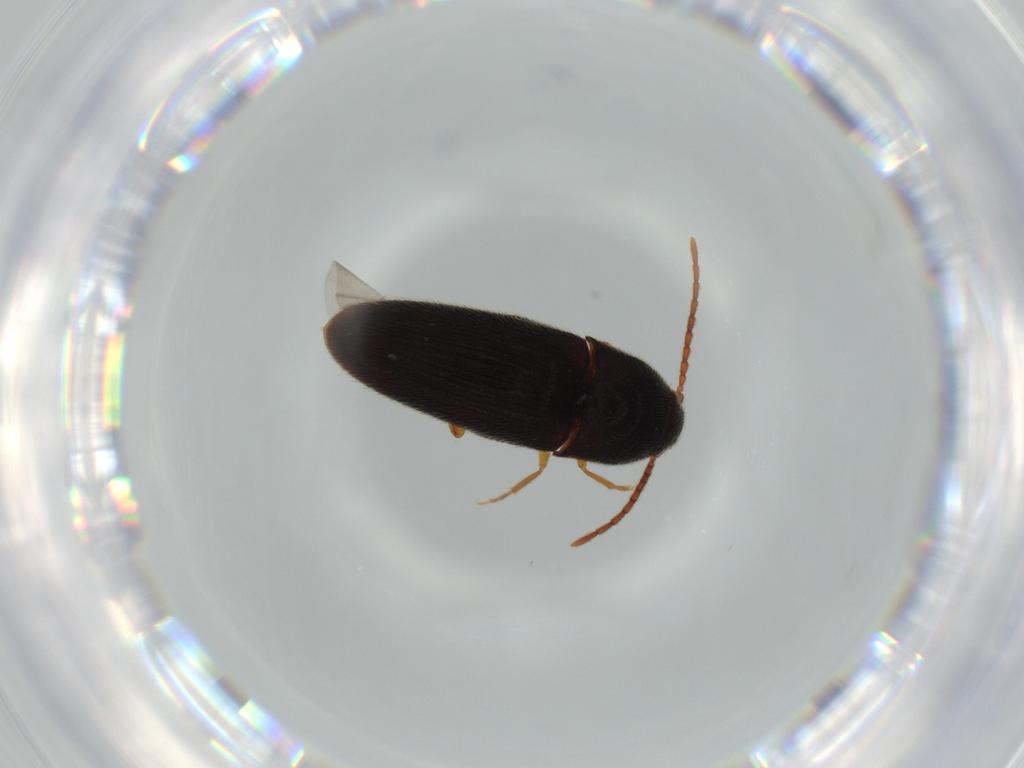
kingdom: Animalia
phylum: Arthropoda
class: Insecta
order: Coleoptera
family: Elateridae
